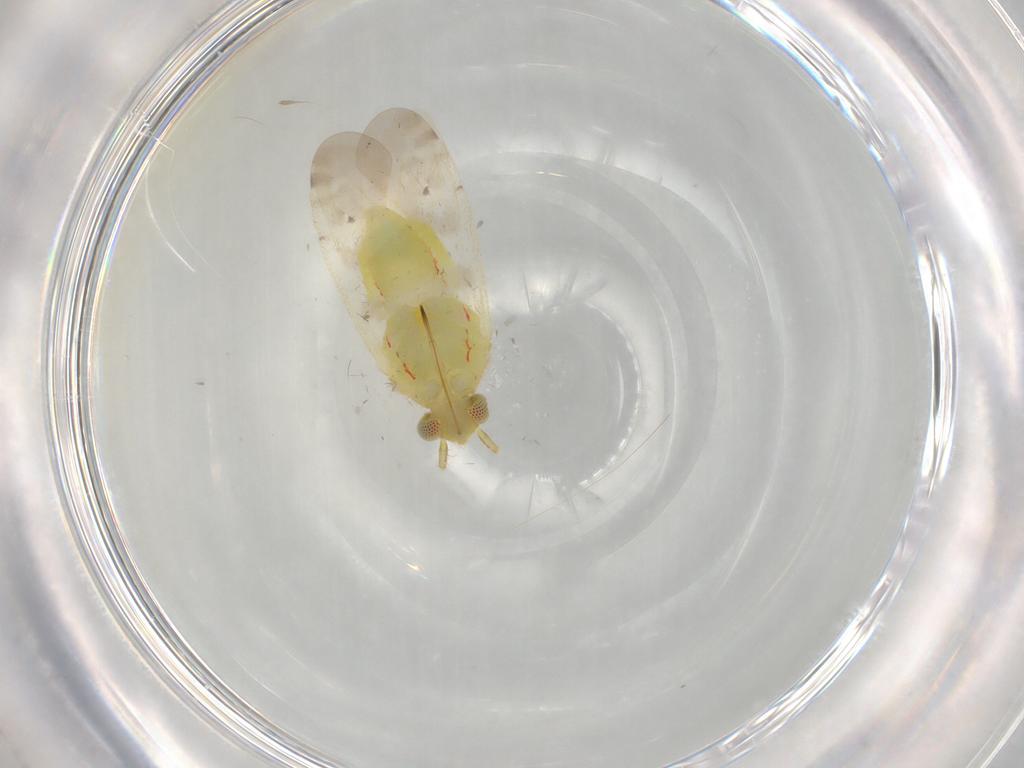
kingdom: Animalia
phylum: Arthropoda
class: Insecta
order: Hemiptera
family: Miridae
